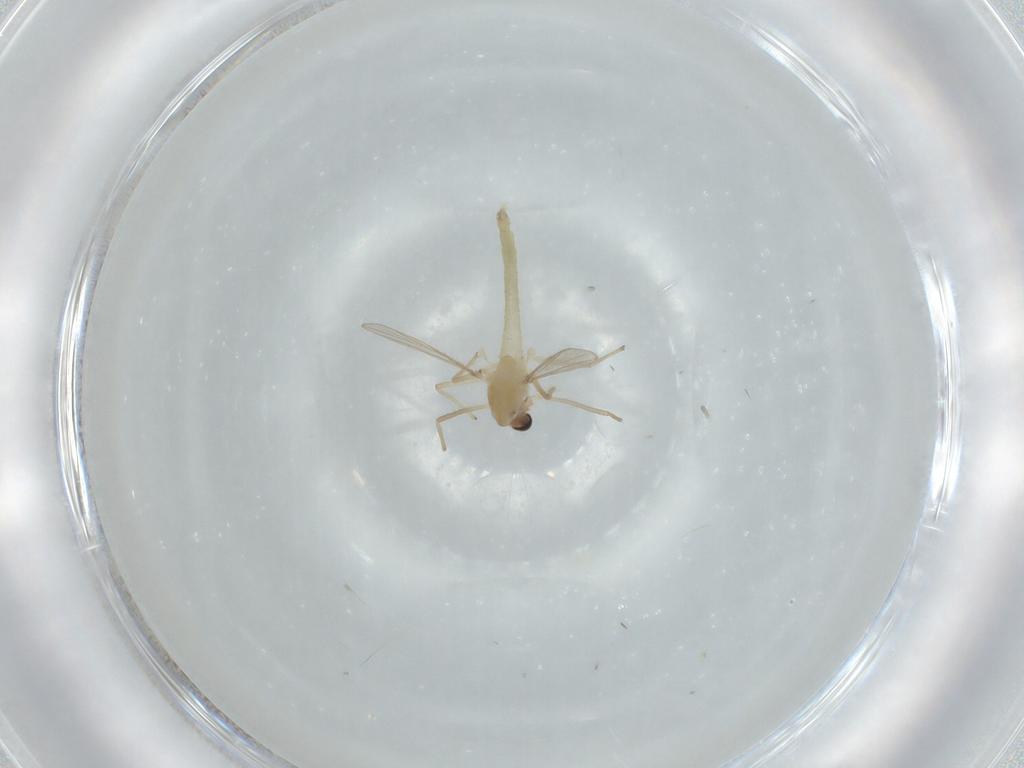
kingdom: Animalia
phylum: Arthropoda
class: Insecta
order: Diptera
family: Chironomidae
